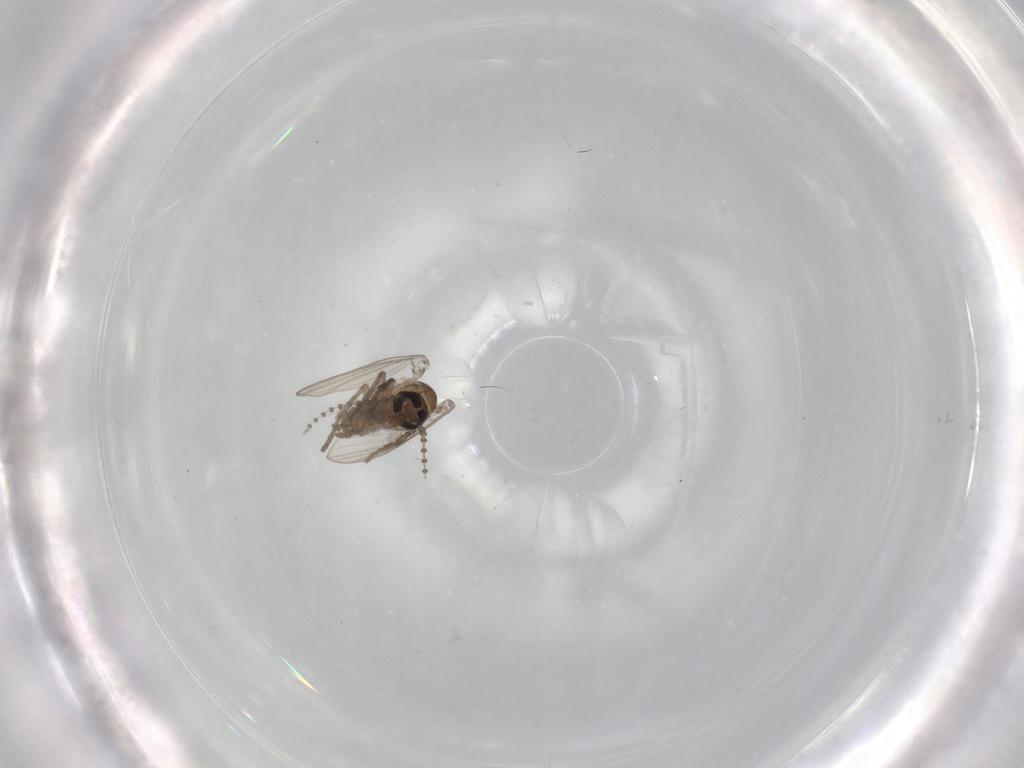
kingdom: Animalia
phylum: Arthropoda
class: Insecta
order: Diptera
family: Psychodidae
